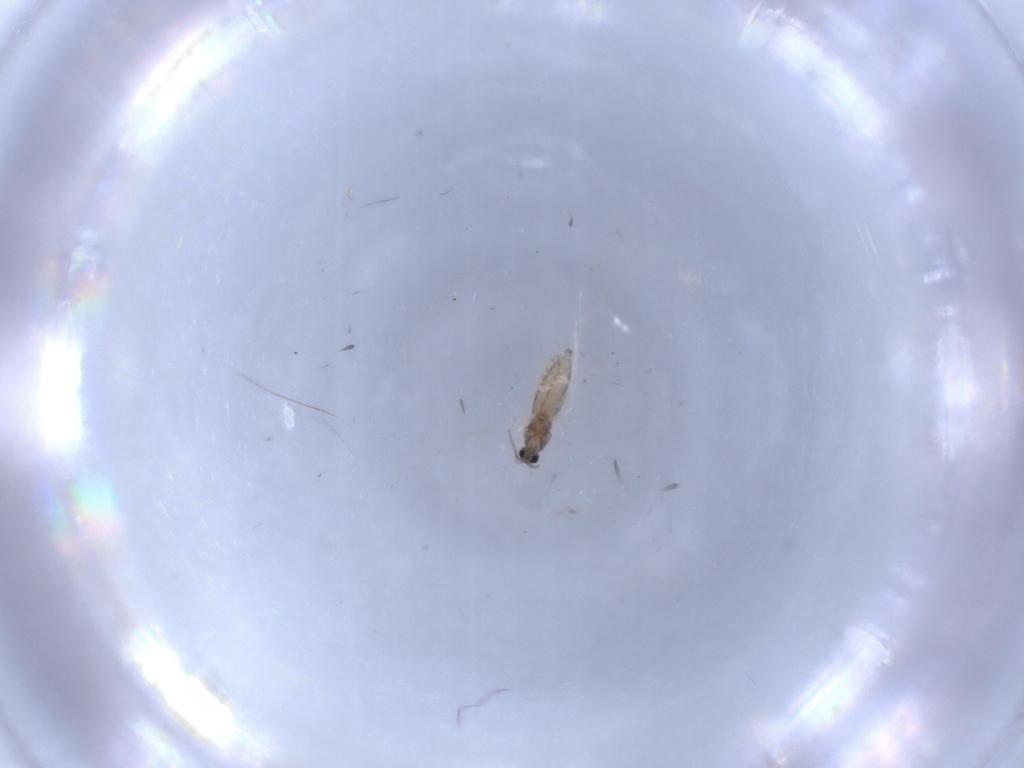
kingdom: Animalia
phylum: Arthropoda
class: Insecta
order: Diptera
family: Cecidomyiidae
